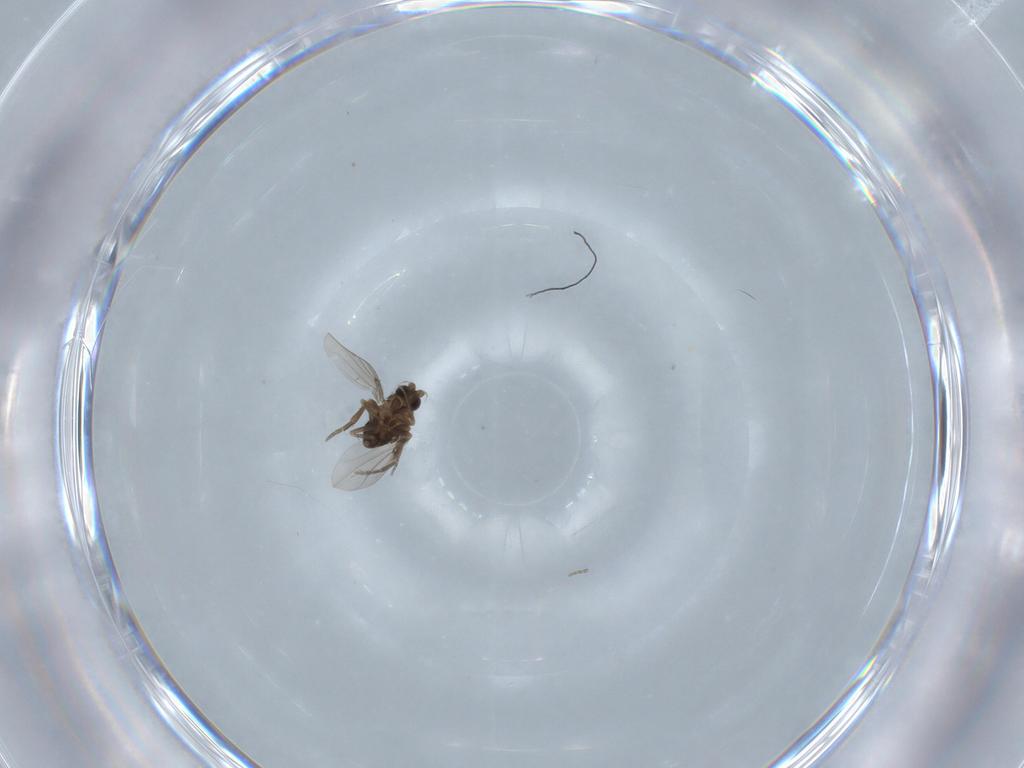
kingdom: Animalia
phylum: Arthropoda
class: Insecta
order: Diptera
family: Phoridae
